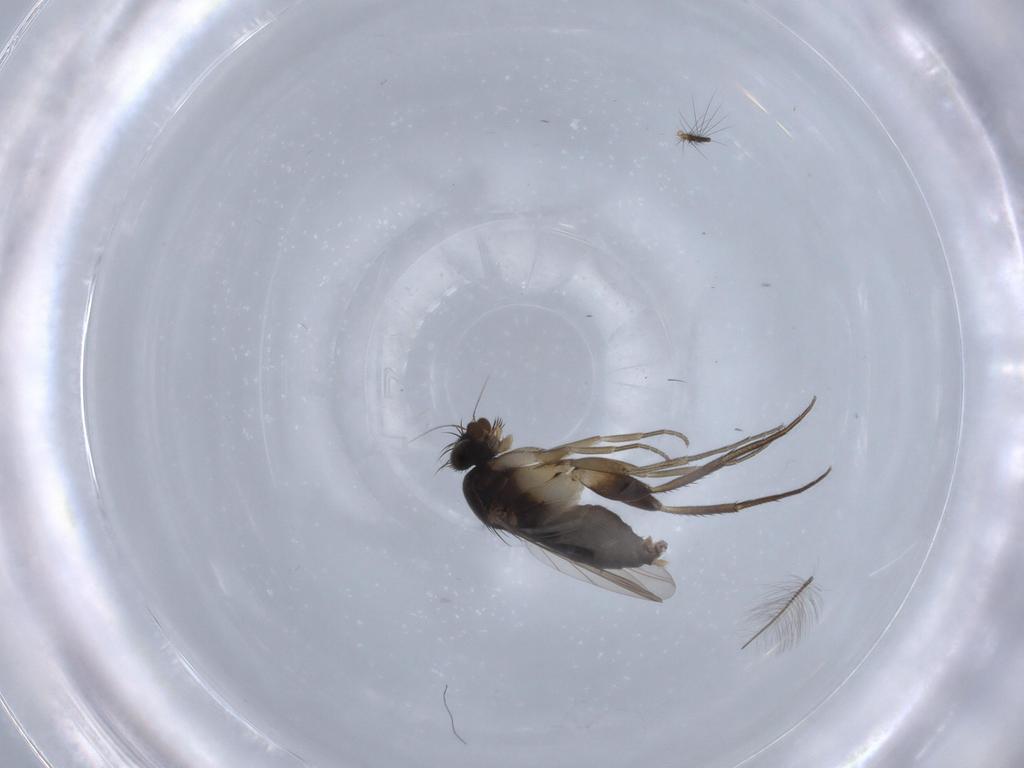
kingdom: Animalia
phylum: Arthropoda
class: Insecta
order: Diptera
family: Phoridae
